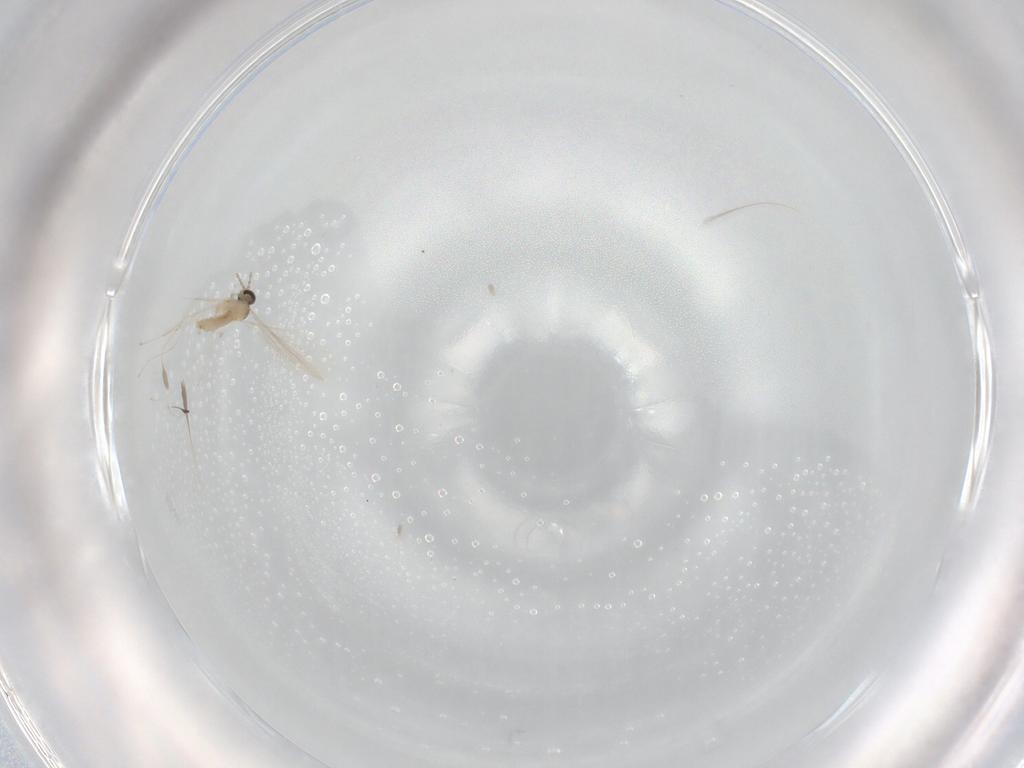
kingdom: Animalia
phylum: Arthropoda
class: Insecta
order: Diptera
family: Cecidomyiidae
